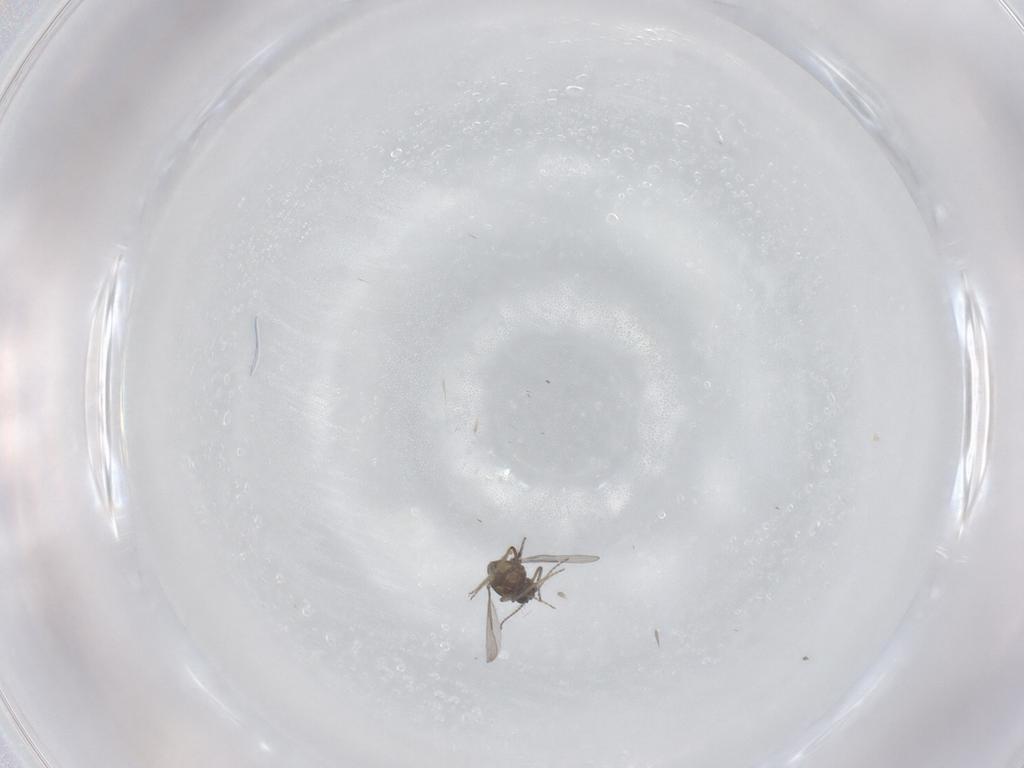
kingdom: Animalia
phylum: Arthropoda
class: Insecta
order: Diptera
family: Ceratopogonidae
